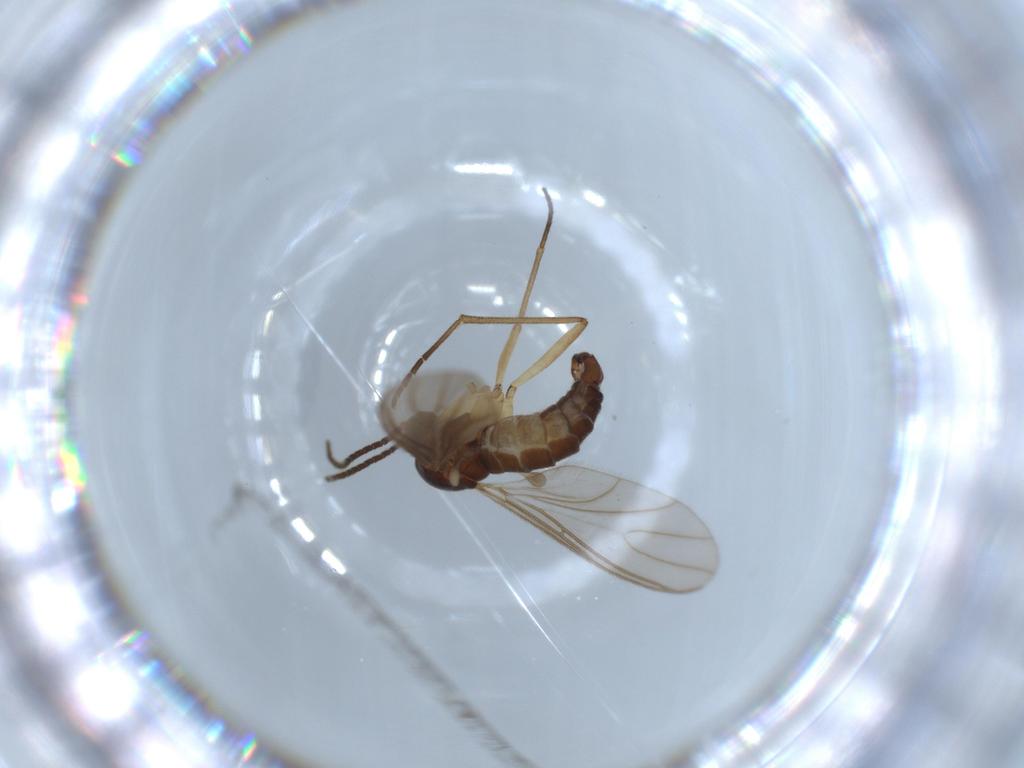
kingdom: Animalia
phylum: Arthropoda
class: Insecta
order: Diptera
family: Sciaridae
